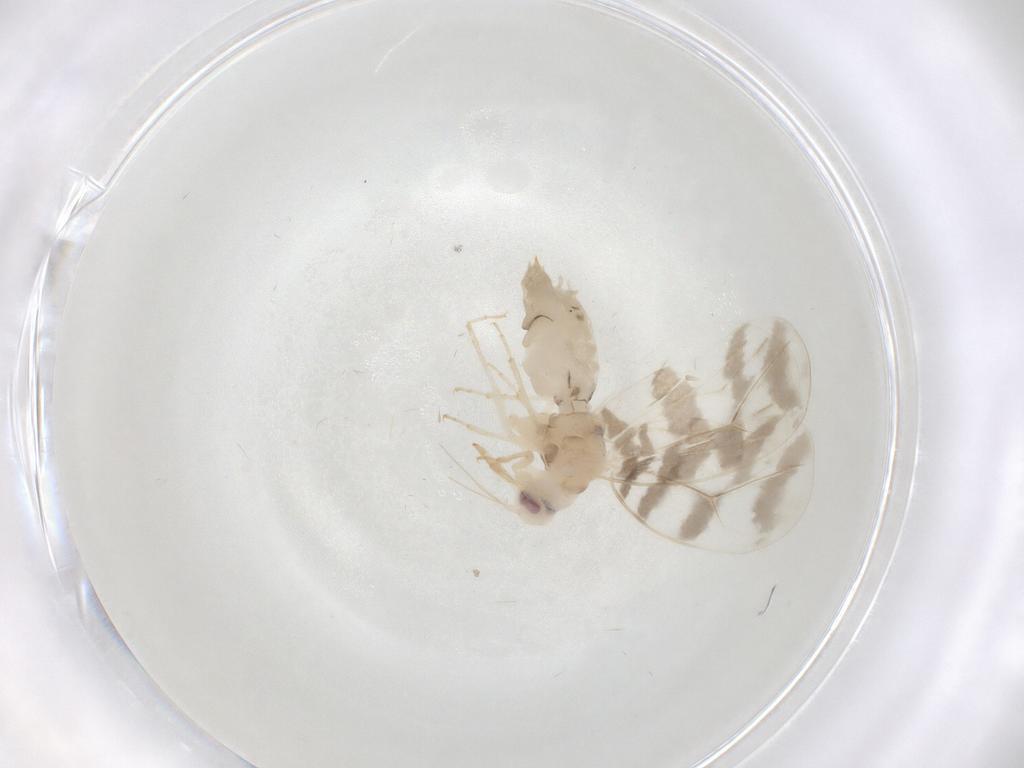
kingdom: Animalia
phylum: Arthropoda
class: Insecta
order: Hemiptera
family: Aleyrodidae
